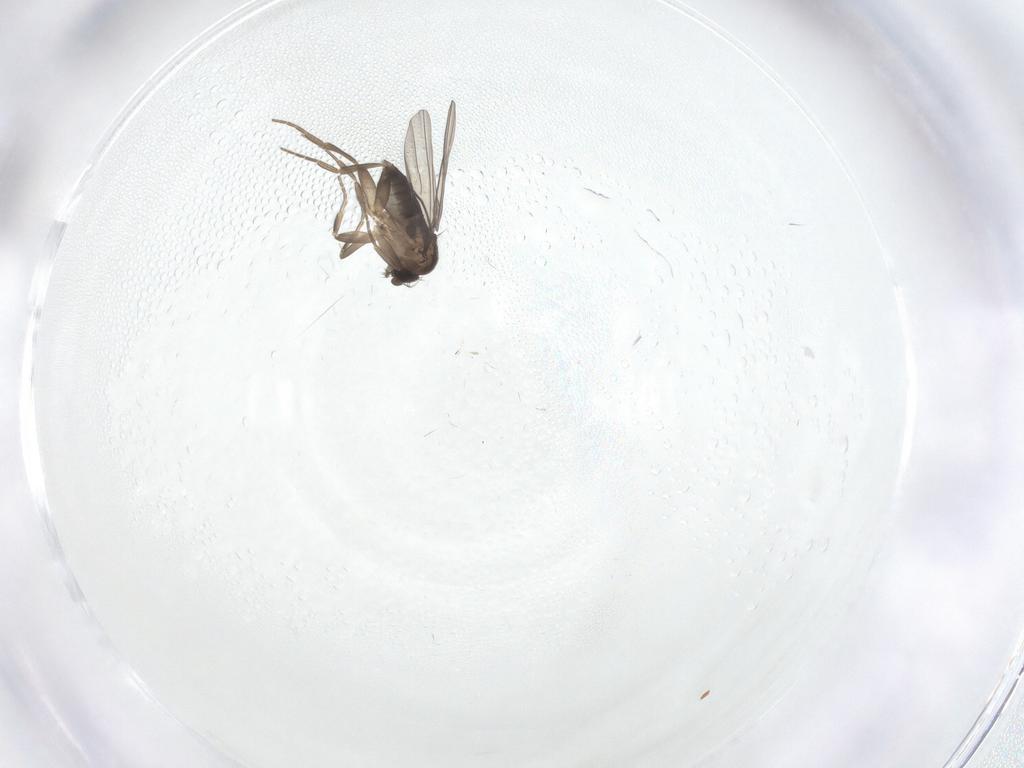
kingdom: Animalia
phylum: Arthropoda
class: Insecta
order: Diptera
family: Phoridae
